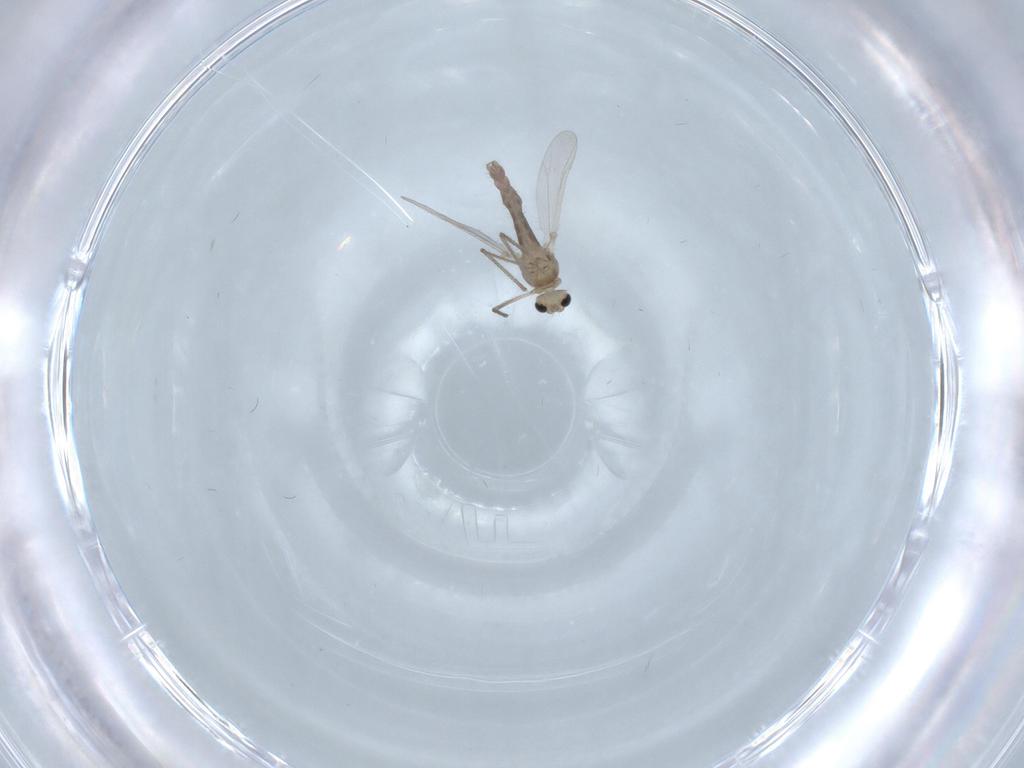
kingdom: Animalia
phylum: Arthropoda
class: Insecta
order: Diptera
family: Chironomidae
